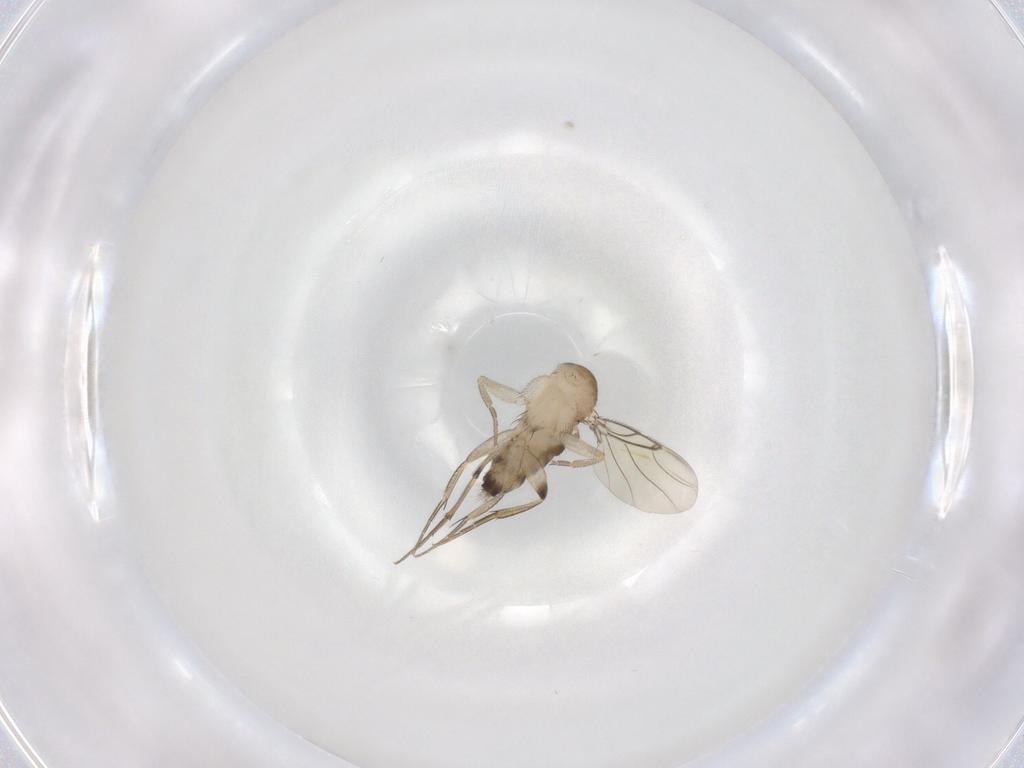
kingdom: Animalia
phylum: Arthropoda
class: Insecta
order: Diptera
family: Phoridae
